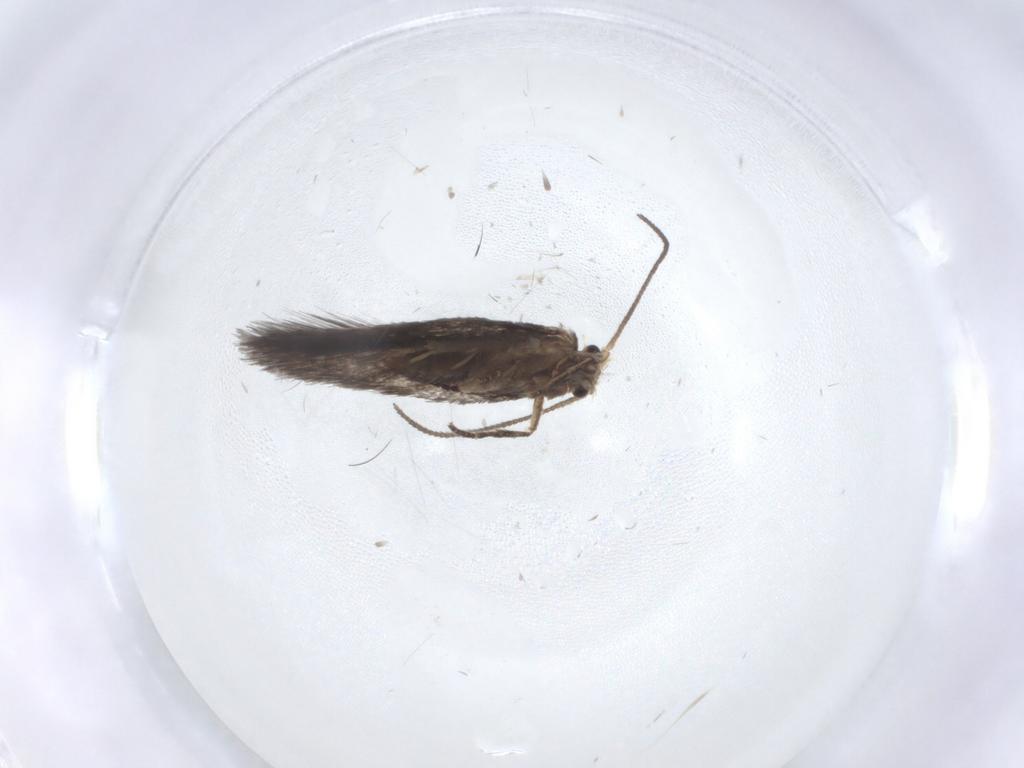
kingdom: Animalia
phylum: Arthropoda
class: Insecta
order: Lepidoptera
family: Nepticulidae
